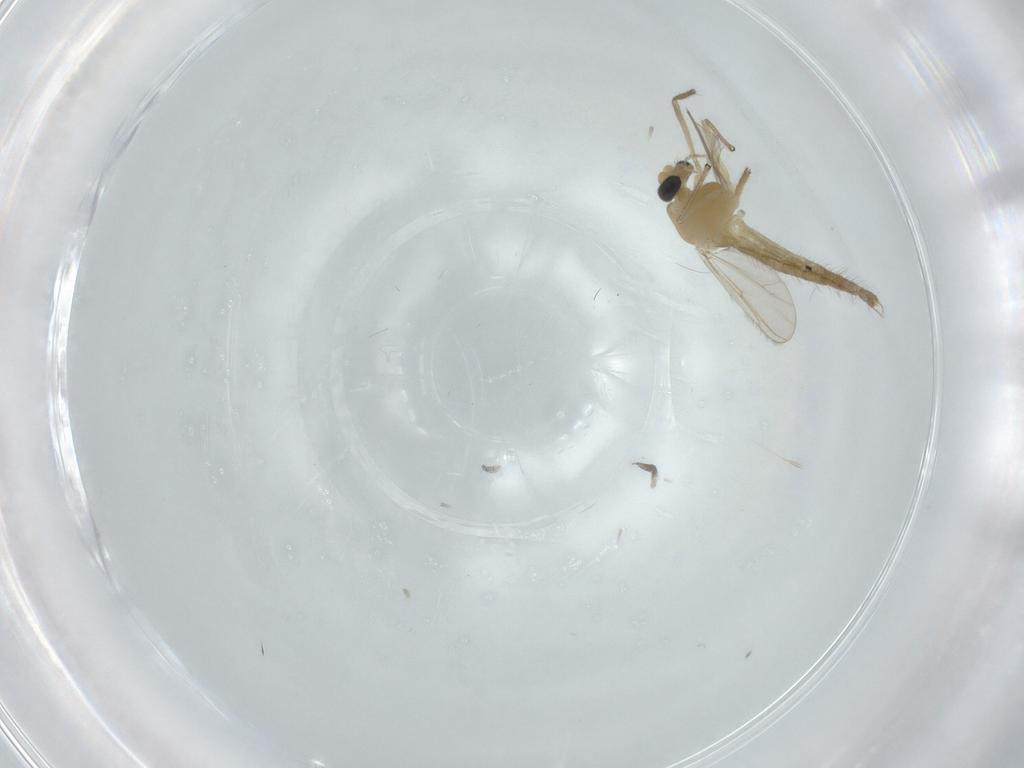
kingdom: Animalia
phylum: Arthropoda
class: Insecta
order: Diptera
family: Chironomidae
